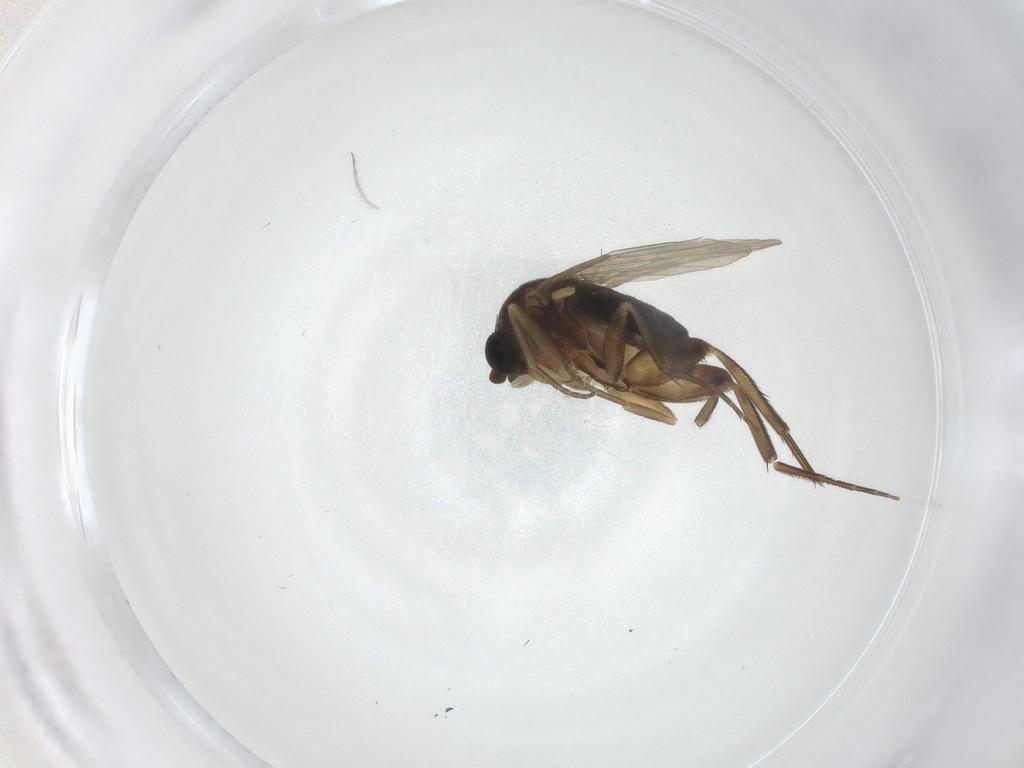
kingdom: Animalia
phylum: Arthropoda
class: Insecta
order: Diptera
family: Phoridae
